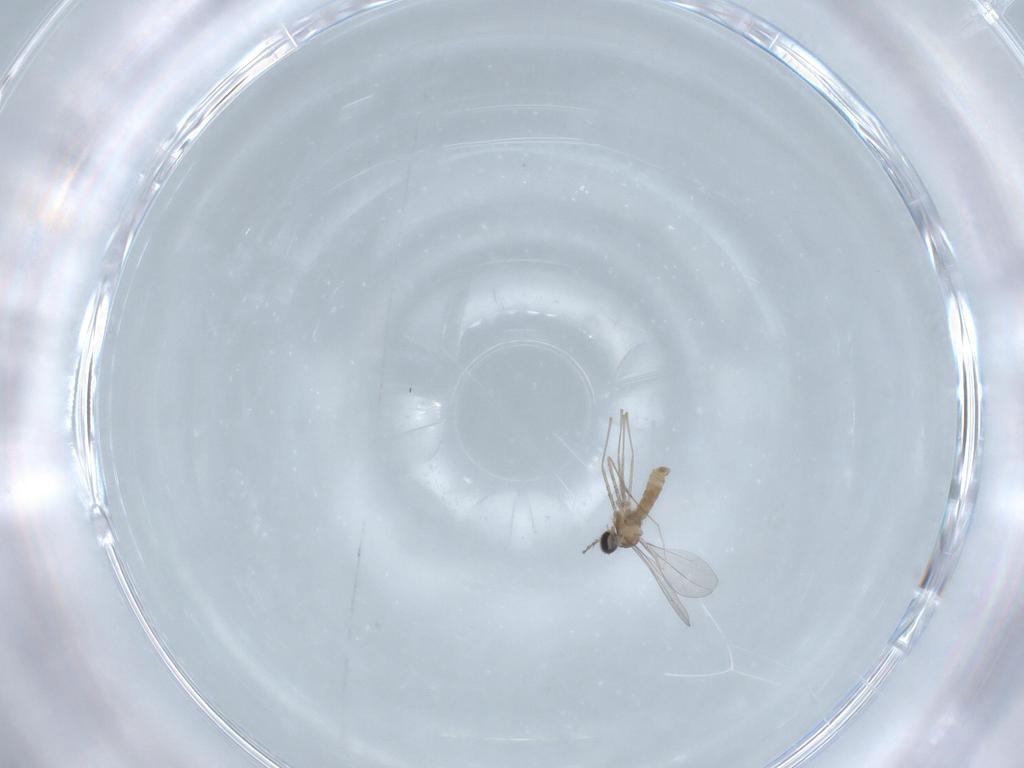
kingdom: Animalia
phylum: Arthropoda
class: Insecta
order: Diptera
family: Cecidomyiidae
